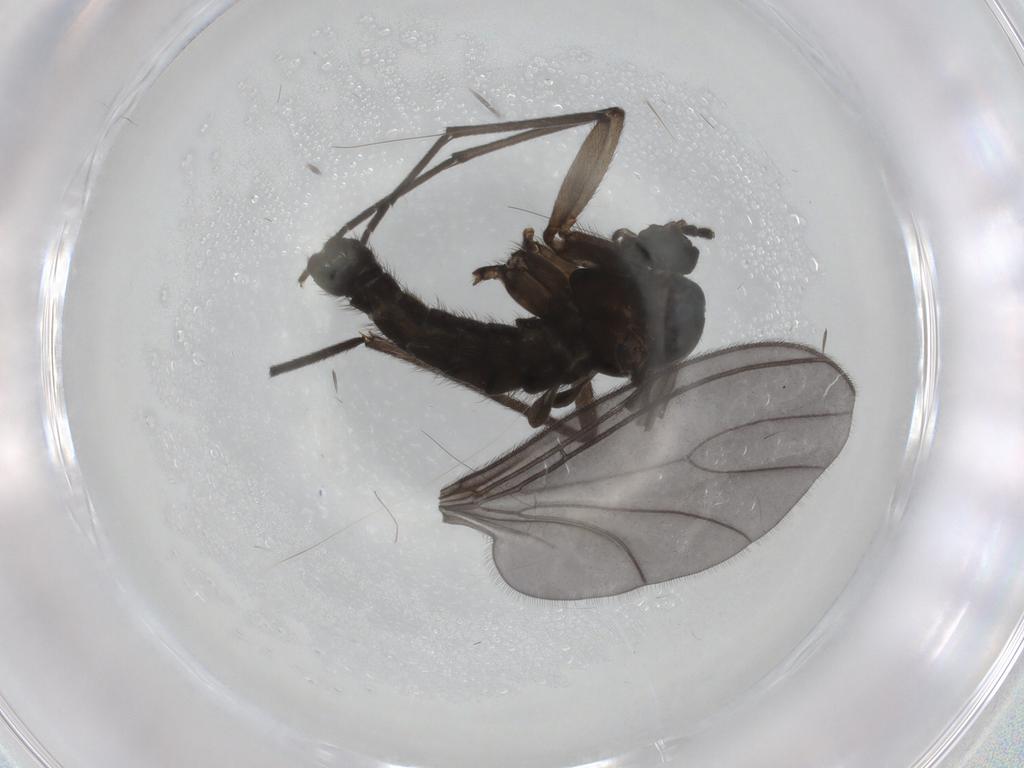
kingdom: Animalia
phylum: Arthropoda
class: Insecta
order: Diptera
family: Sciaridae
